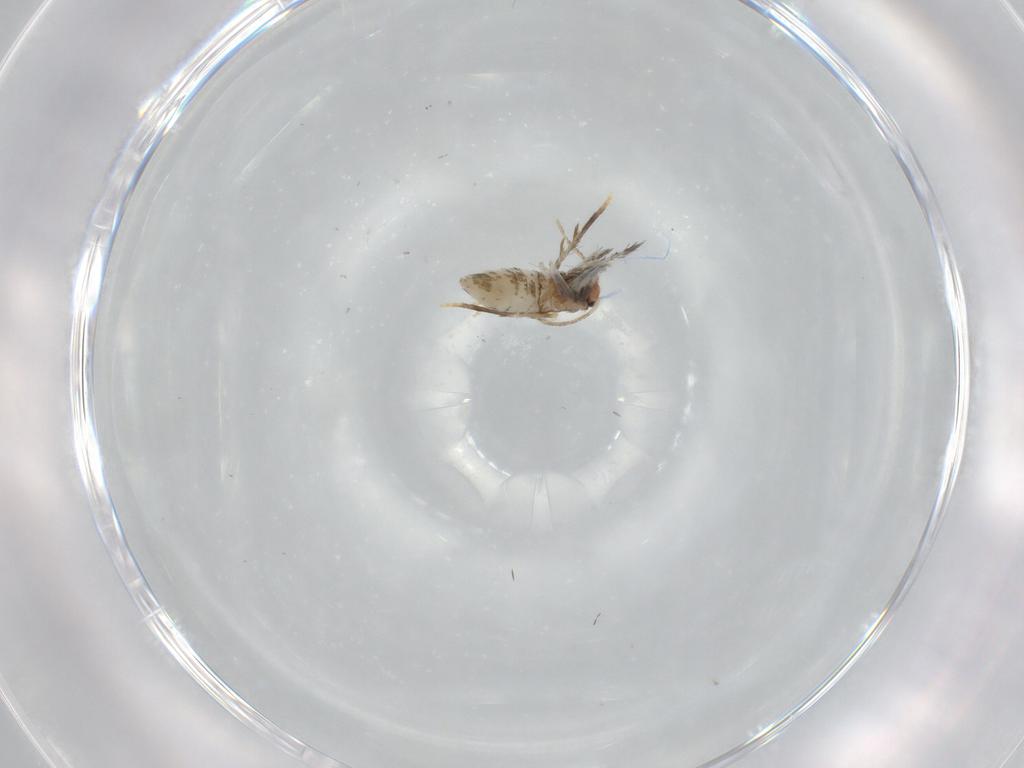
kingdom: Animalia
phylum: Arthropoda
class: Insecta
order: Lepidoptera
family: Nepticulidae
